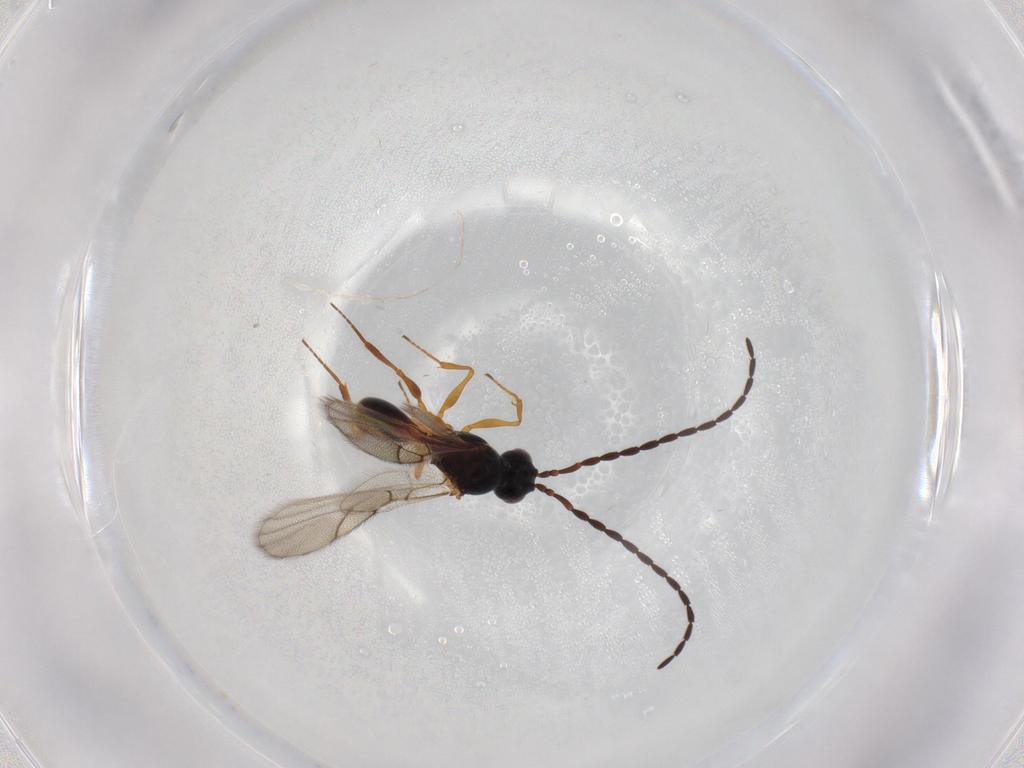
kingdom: Animalia
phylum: Arthropoda
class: Insecta
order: Hymenoptera
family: Figitidae
